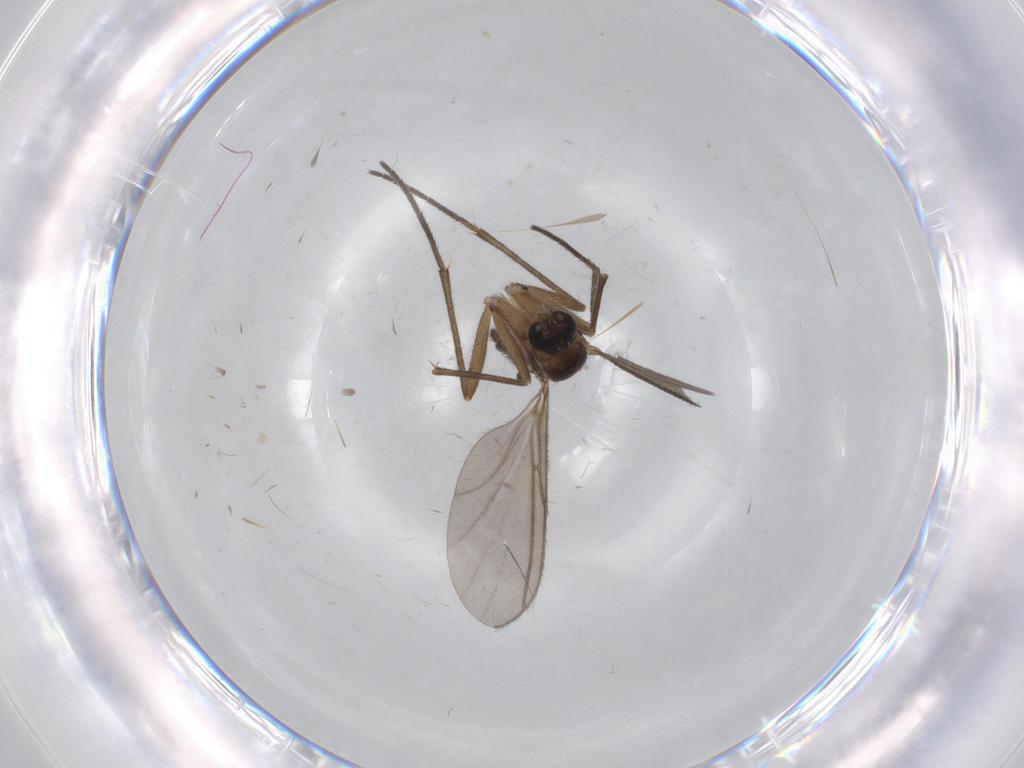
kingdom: Animalia
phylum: Arthropoda
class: Insecta
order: Diptera
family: Sciaridae
